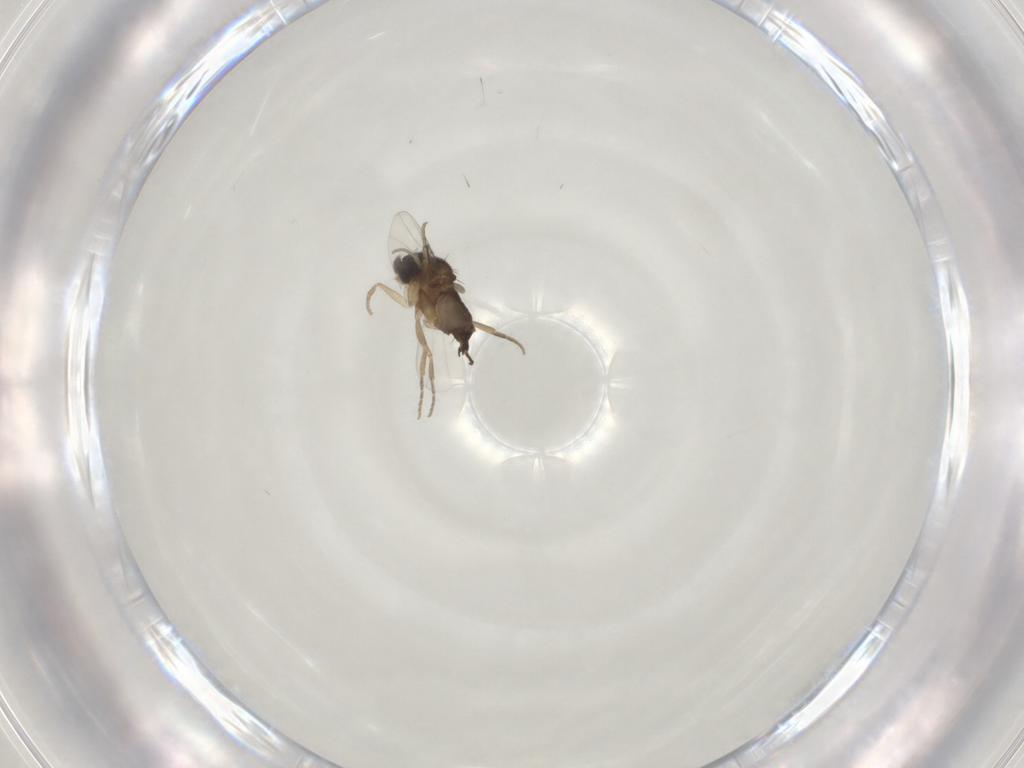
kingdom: Animalia
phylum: Arthropoda
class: Insecta
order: Diptera
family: Phoridae
